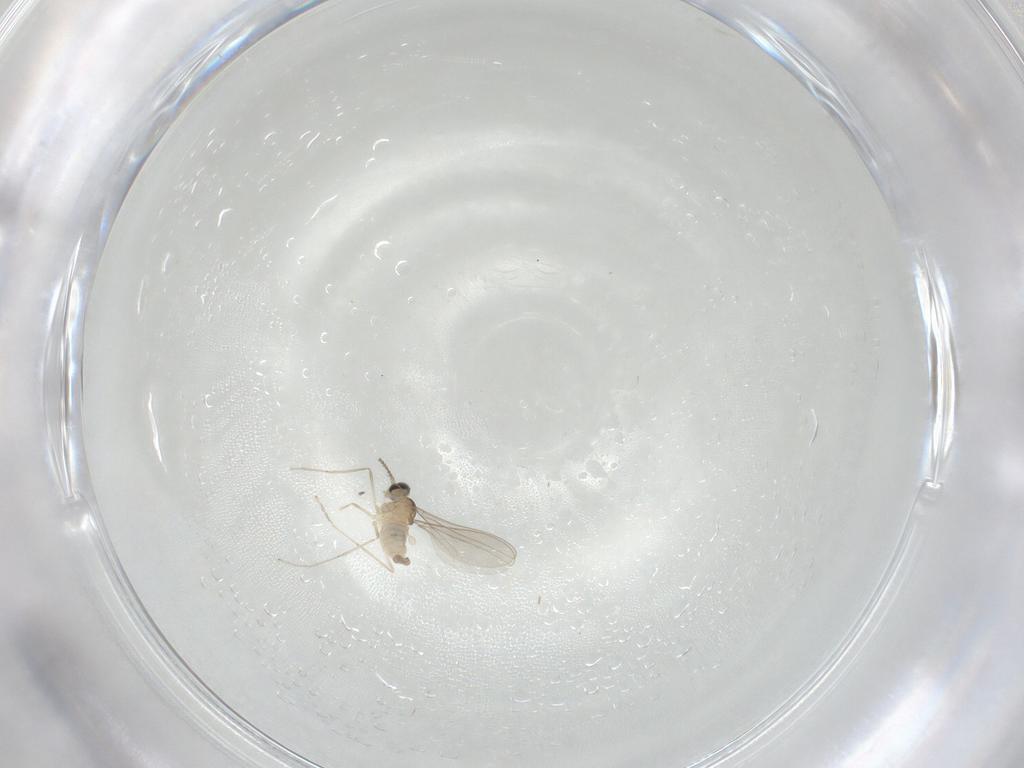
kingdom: Animalia
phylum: Arthropoda
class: Insecta
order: Diptera
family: Cecidomyiidae
